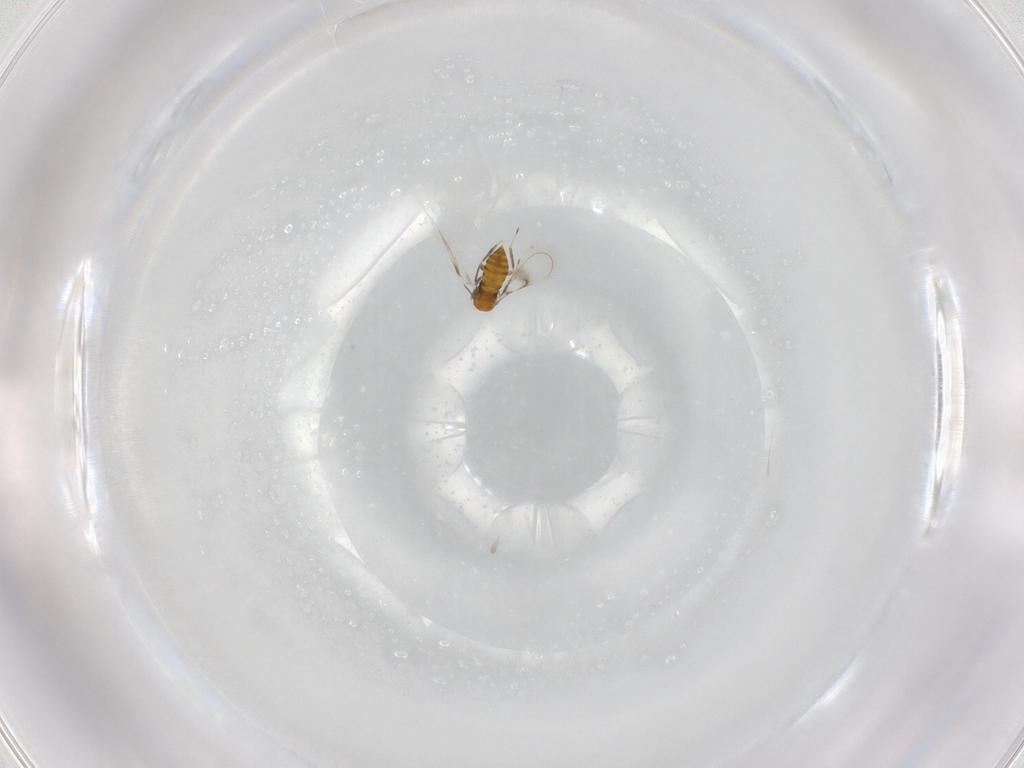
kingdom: Animalia
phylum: Arthropoda
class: Insecta
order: Hymenoptera
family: Trichogrammatidae
